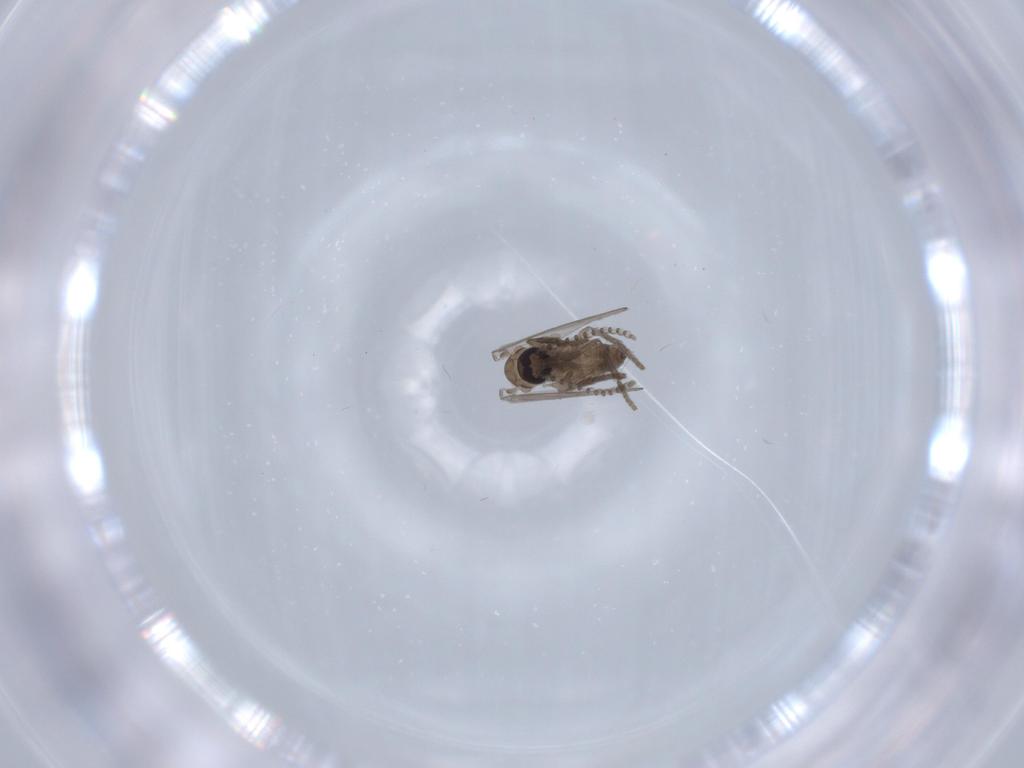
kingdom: Animalia
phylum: Arthropoda
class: Insecta
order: Diptera
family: Psychodidae
